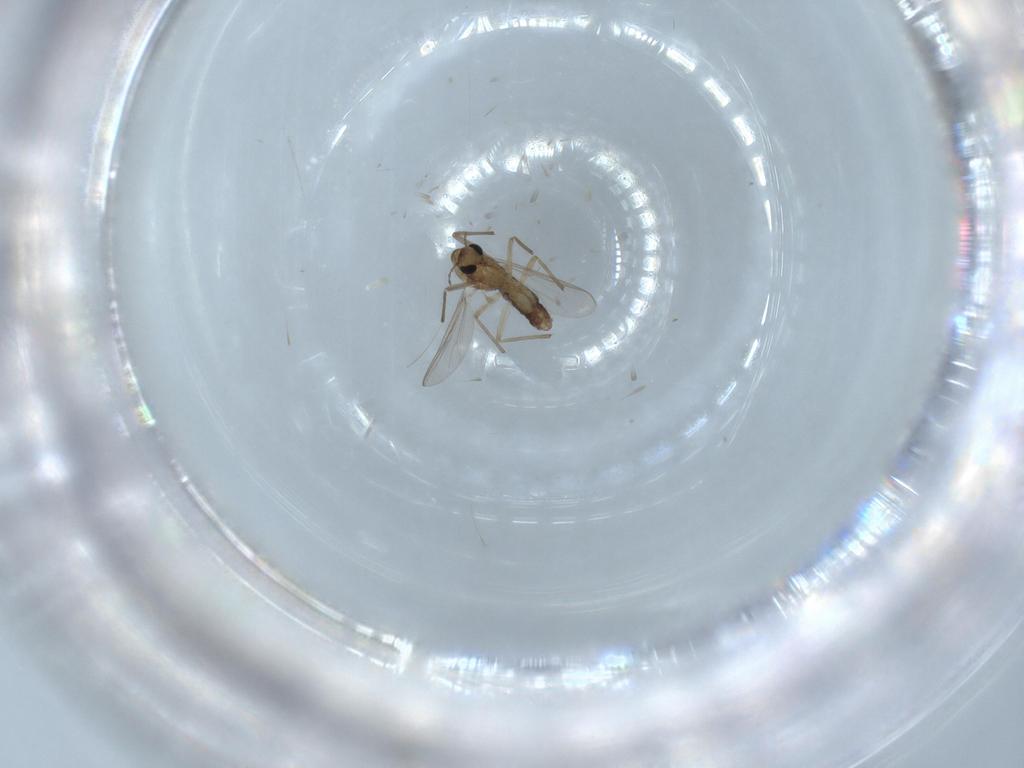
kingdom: Animalia
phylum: Arthropoda
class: Insecta
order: Diptera
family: Chironomidae
